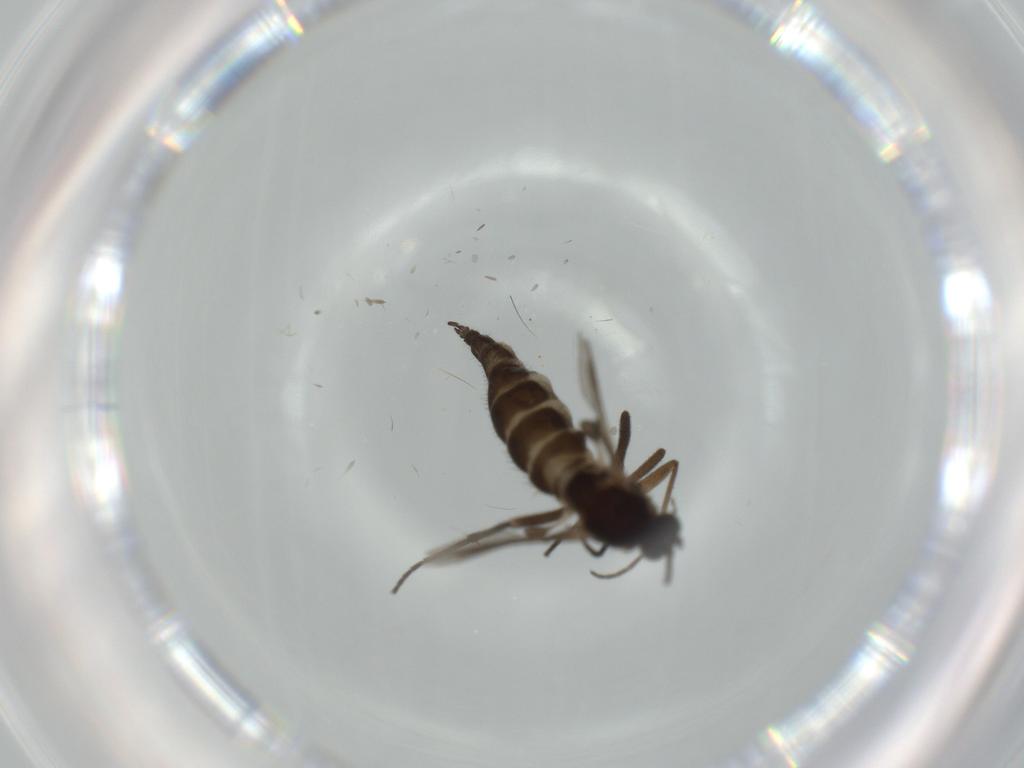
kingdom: Animalia
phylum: Arthropoda
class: Insecta
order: Diptera
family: Sciaridae
